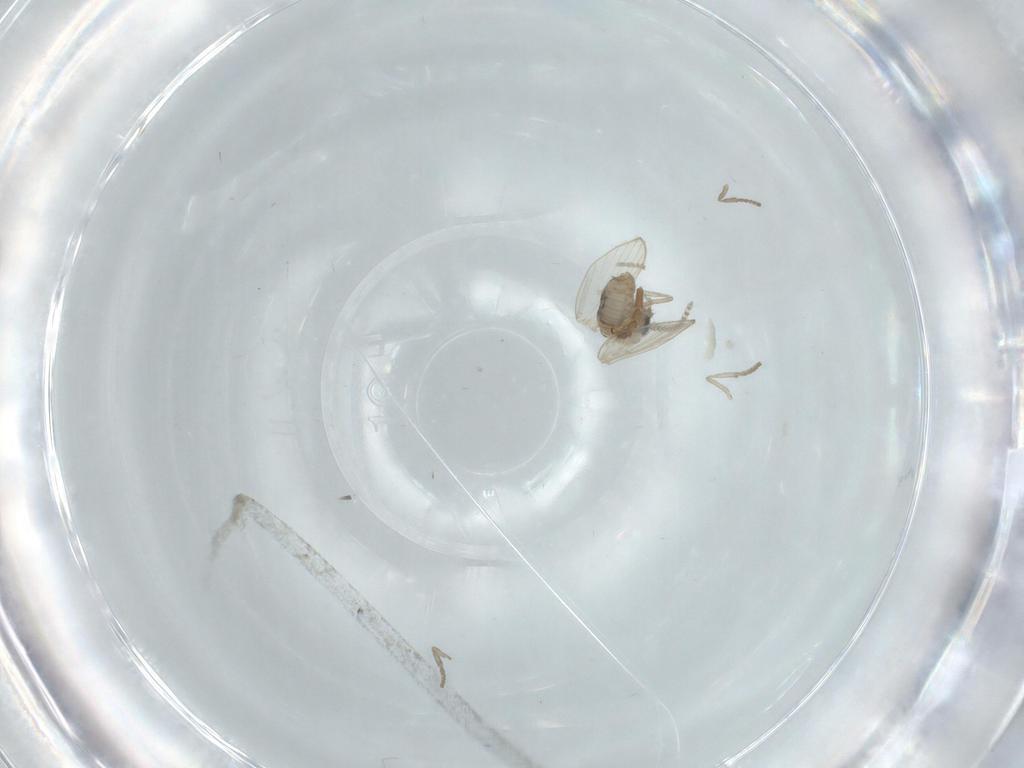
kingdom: Animalia
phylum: Arthropoda
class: Insecta
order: Diptera
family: Psychodidae
